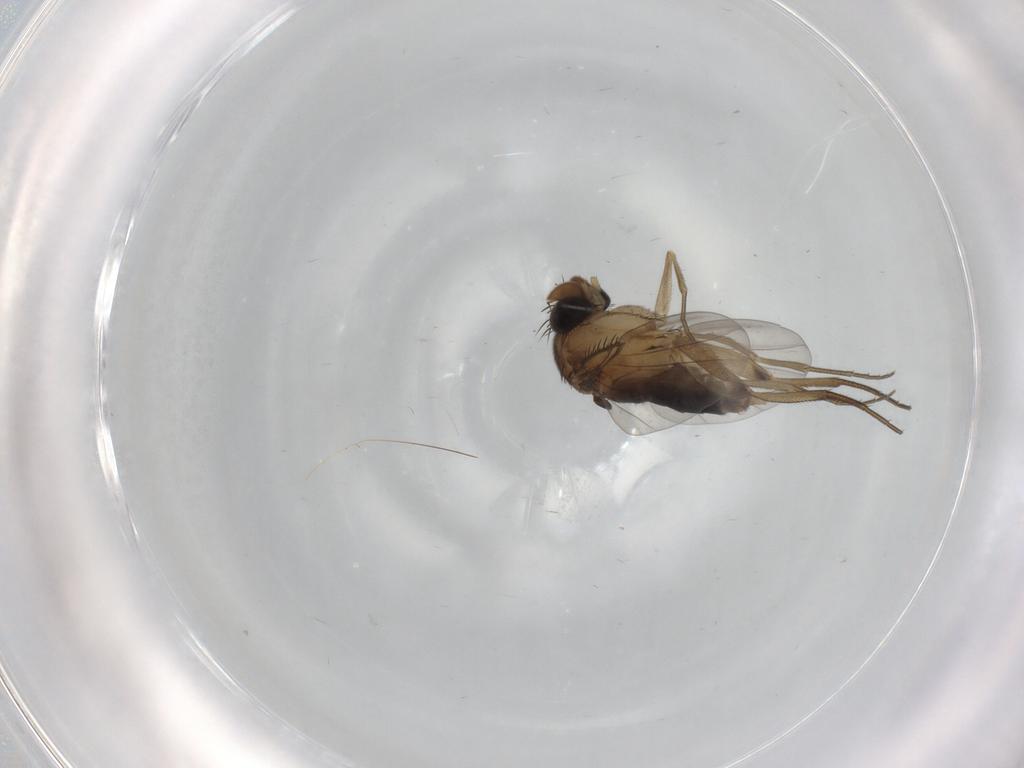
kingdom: Animalia
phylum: Arthropoda
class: Insecta
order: Diptera
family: Phoridae
